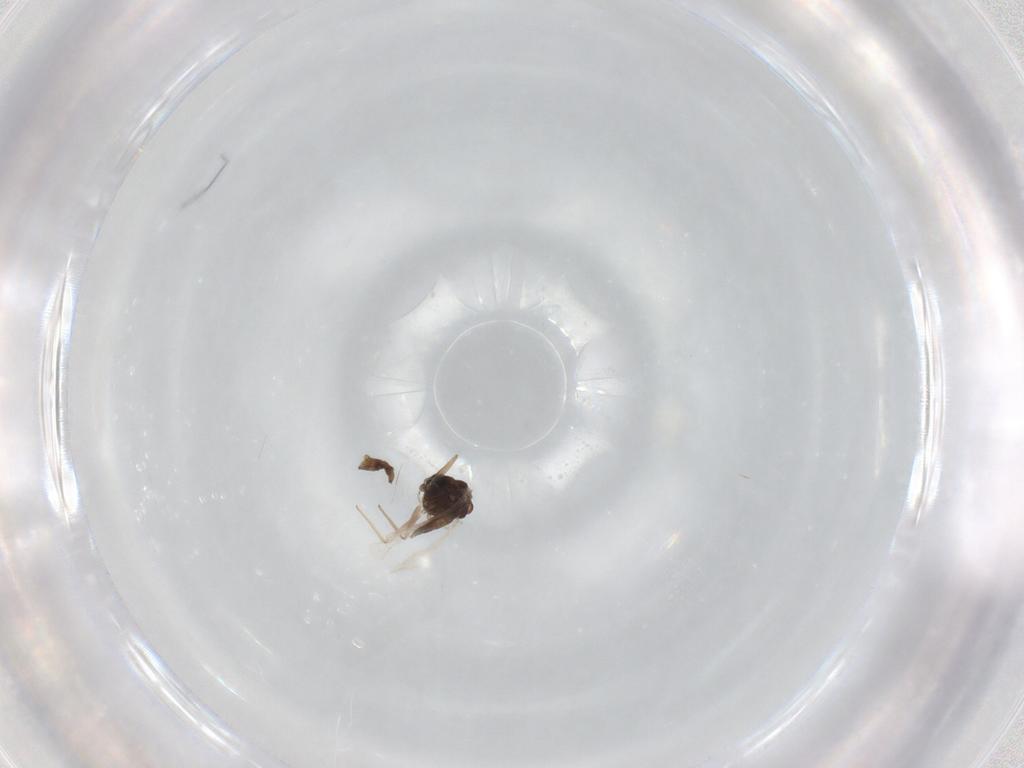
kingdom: Animalia
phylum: Arthropoda
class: Insecta
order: Diptera
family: Chironomidae
